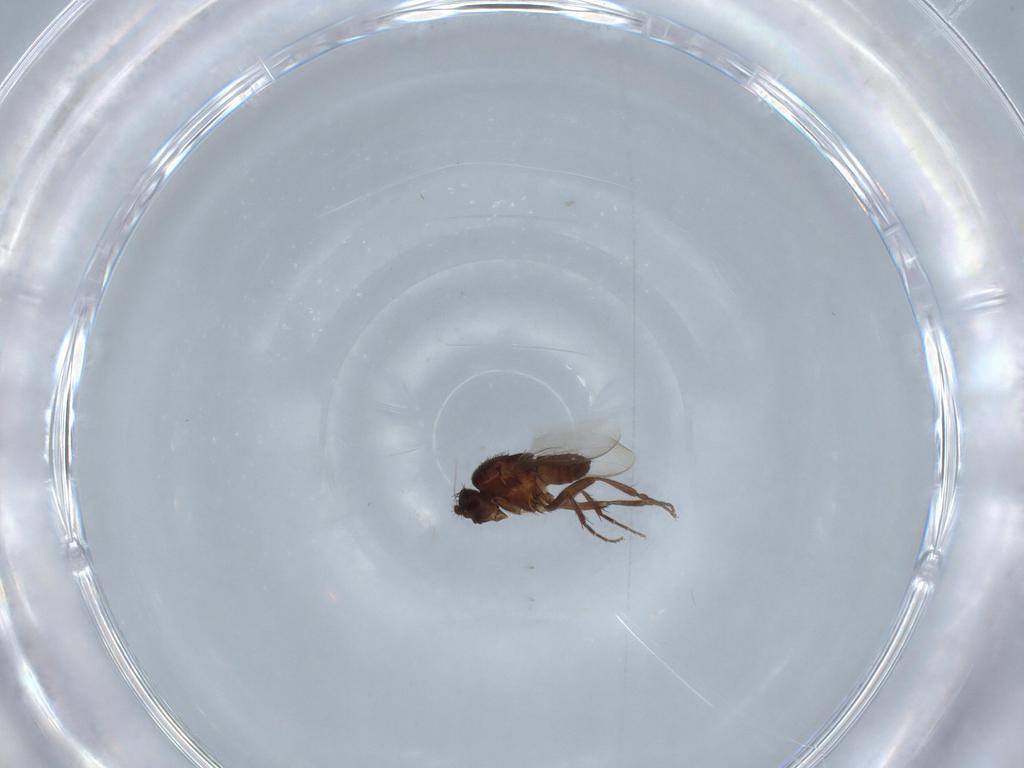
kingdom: Animalia
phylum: Arthropoda
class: Insecta
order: Diptera
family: Sphaeroceridae
